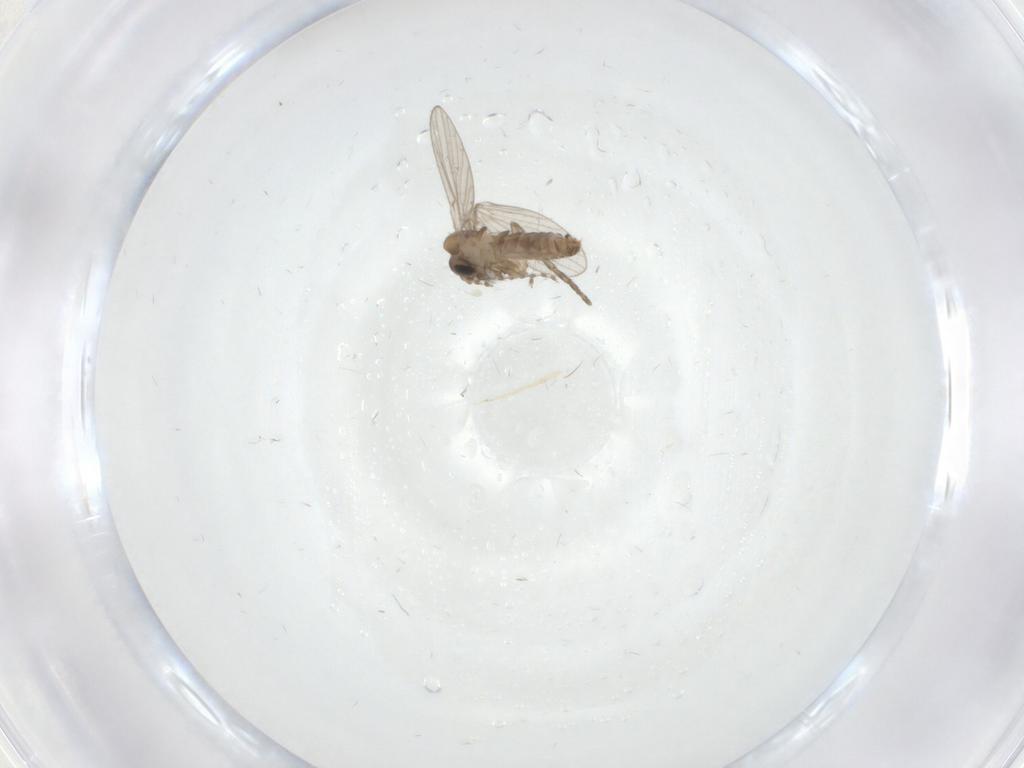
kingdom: Animalia
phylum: Arthropoda
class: Insecta
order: Diptera
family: Cecidomyiidae
